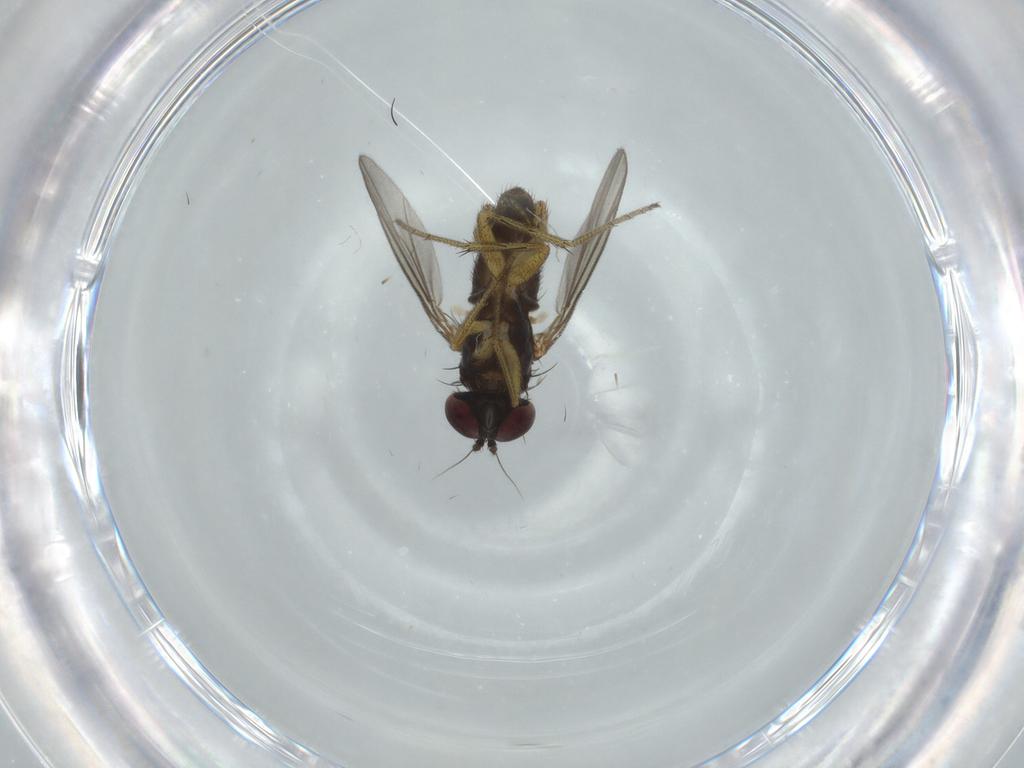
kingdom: Animalia
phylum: Arthropoda
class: Insecta
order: Diptera
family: Dolichopodidae
